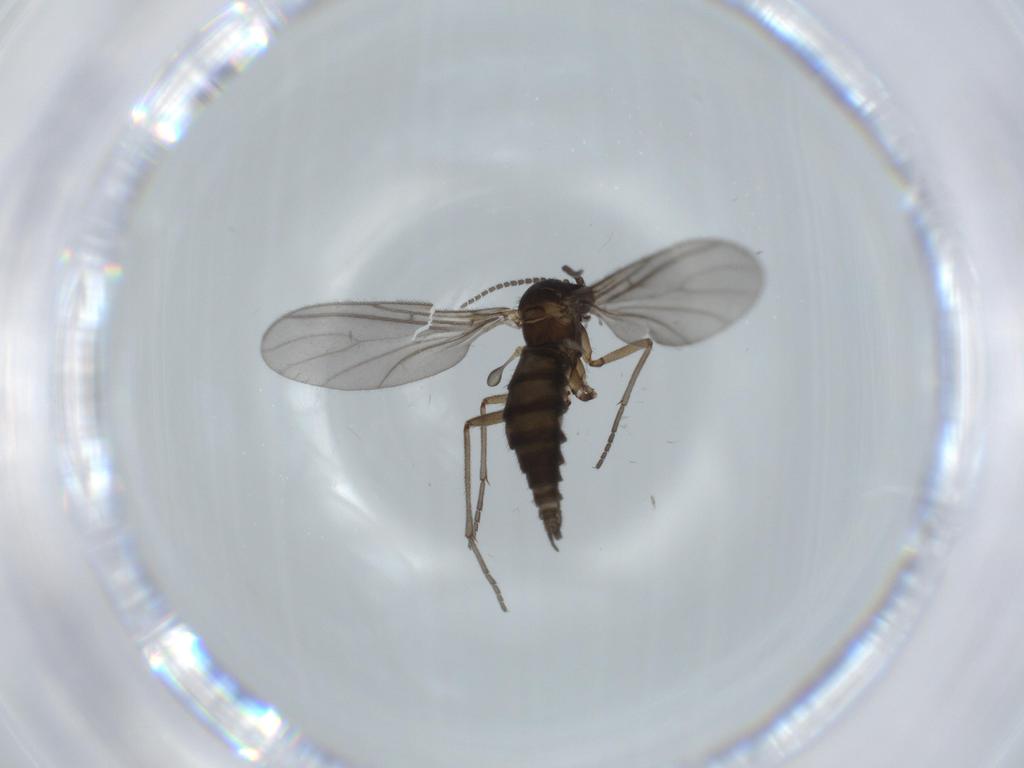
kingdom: Animalia
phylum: Arthropoda
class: Insecta
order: Diptera
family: Sciaridae
